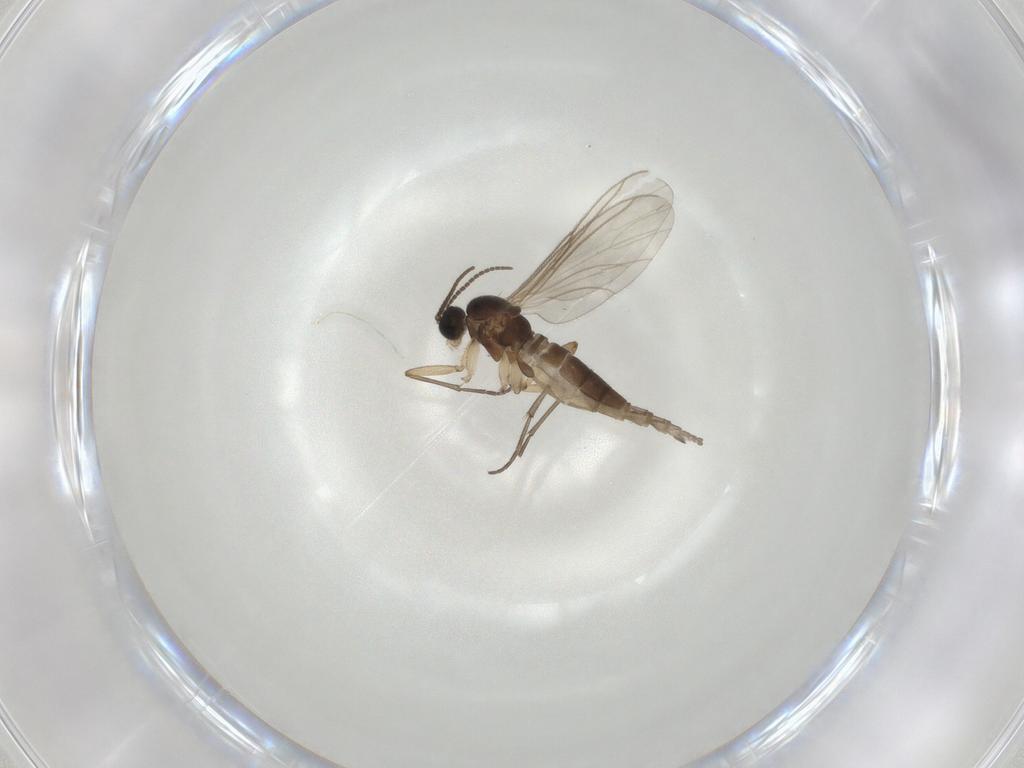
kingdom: Animalia
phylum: Arthropoda
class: Insecta
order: Diptera
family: Sciaridae
